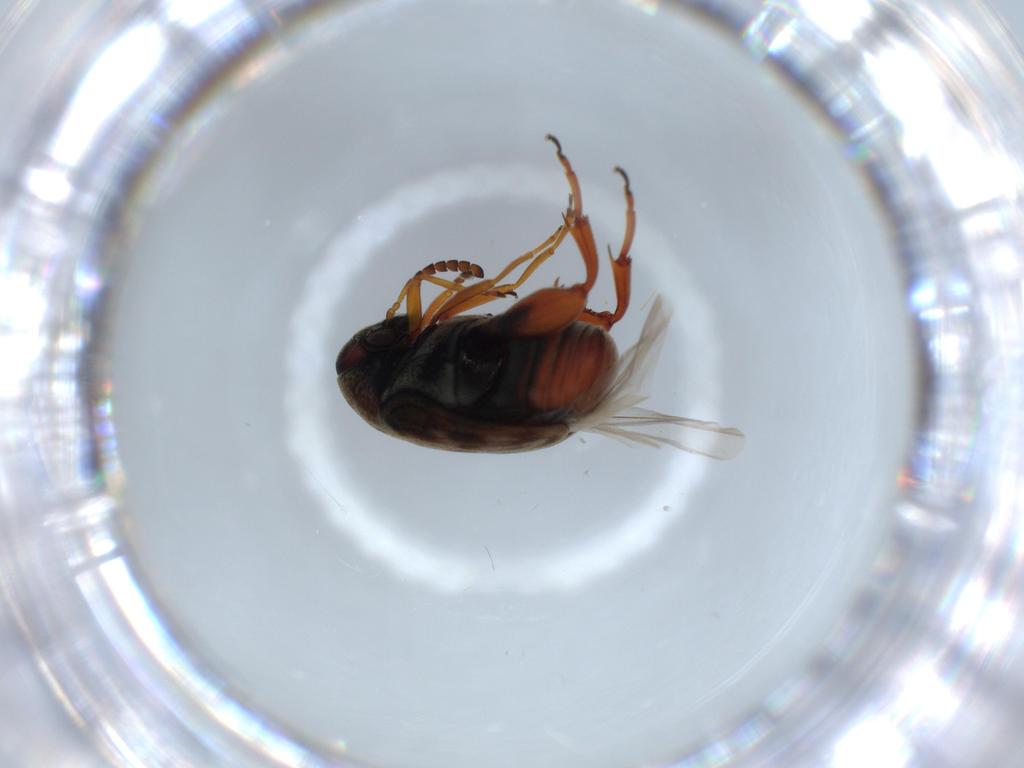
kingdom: Animalia
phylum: Arthropoda
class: Insecta
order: Coleoptera
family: Chrysomelidae
